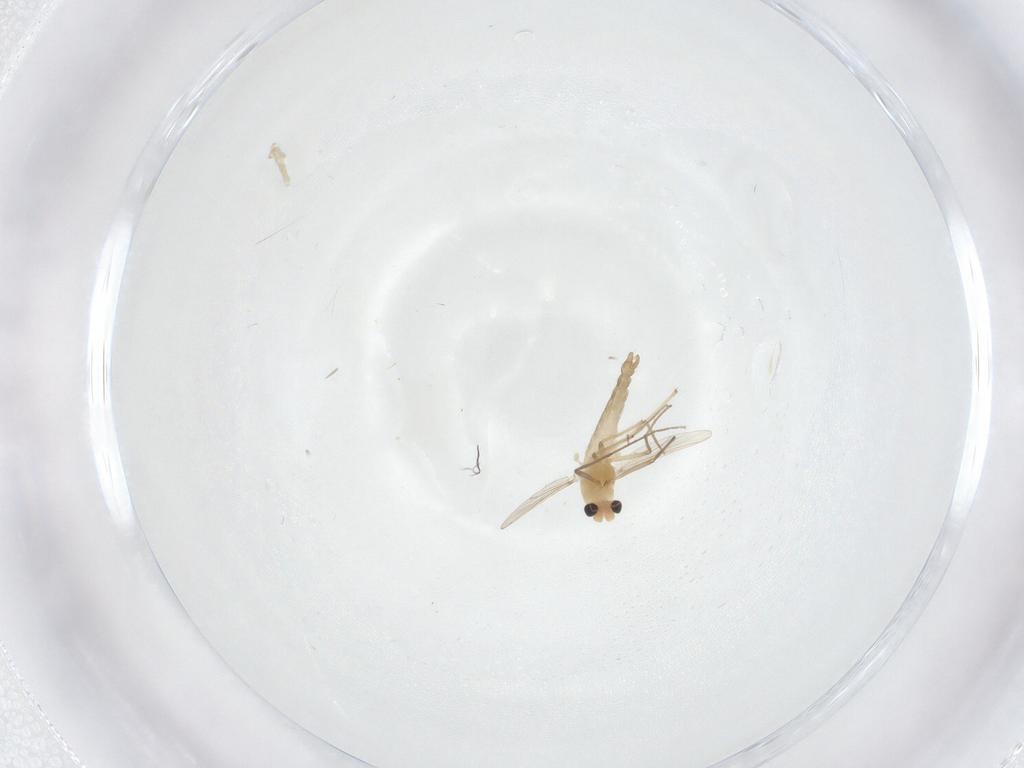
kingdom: Animalia
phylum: Arthropoda
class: Insecta
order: Diptera
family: Chironomidae
